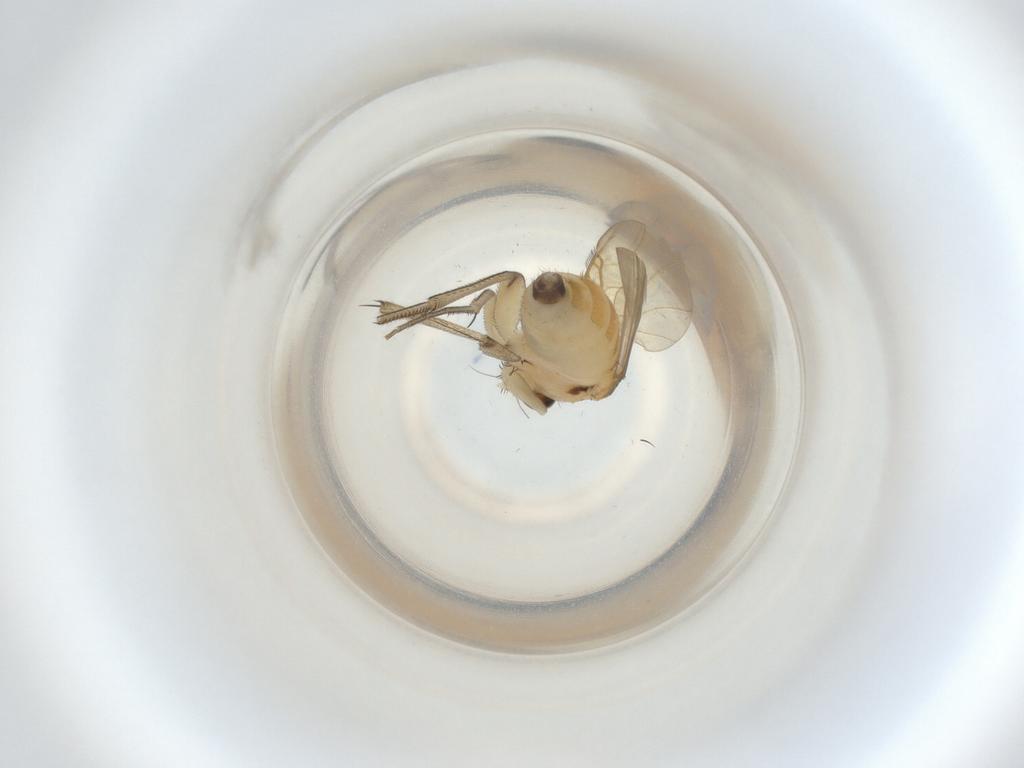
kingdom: Animalia
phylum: Arthropoda
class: Insecta
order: Diptera
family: Phoridae
